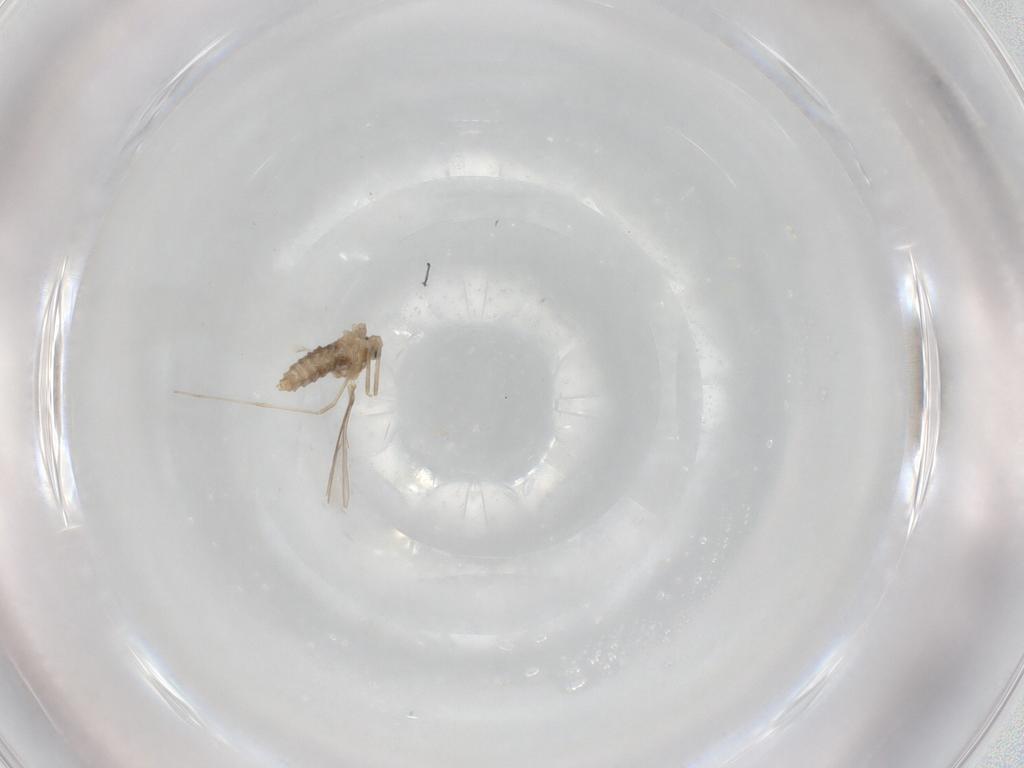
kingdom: Animalia
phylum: Arthropoda
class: Insecta
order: Diptera
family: Cecidomyiidae
